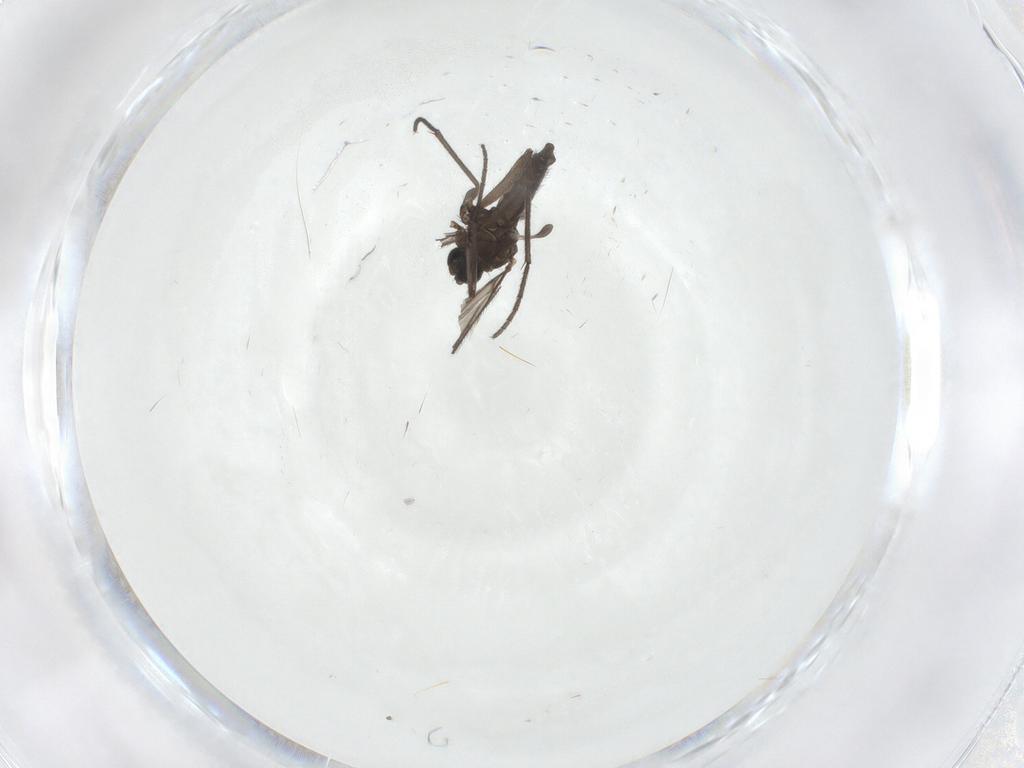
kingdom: Animalia
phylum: Arthropoda
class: Insecta
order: Diptera
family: Sciaridae
